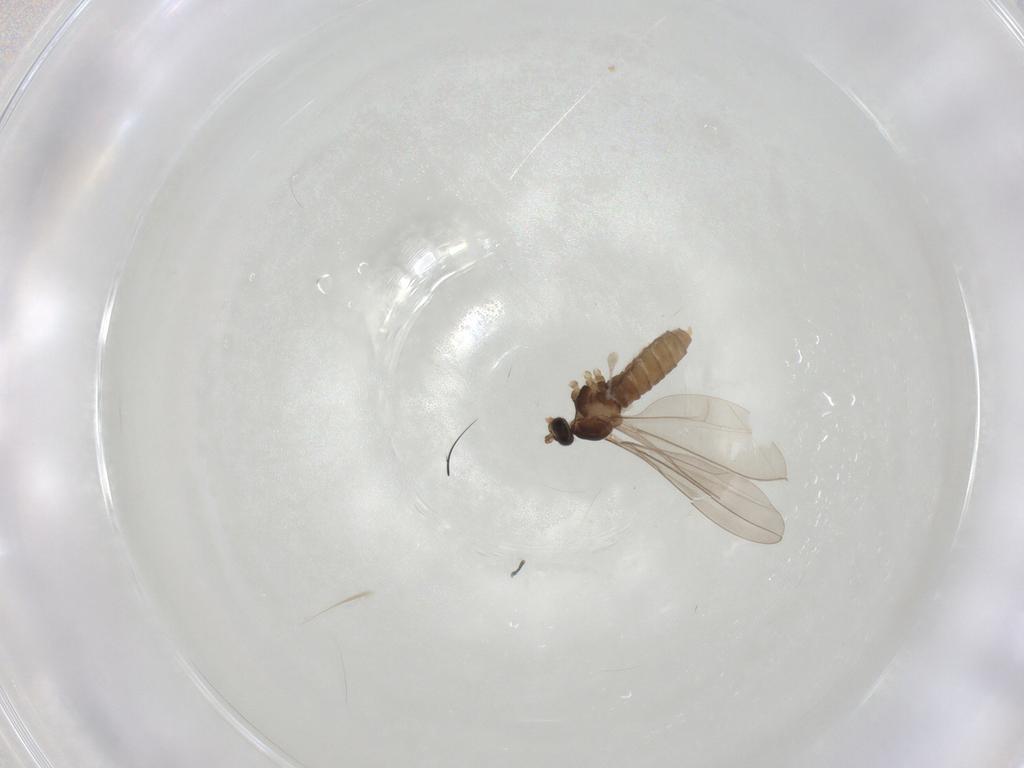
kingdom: Animalia
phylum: Arthropoda
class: Insecta
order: Diptera
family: Cecidomyiidae
